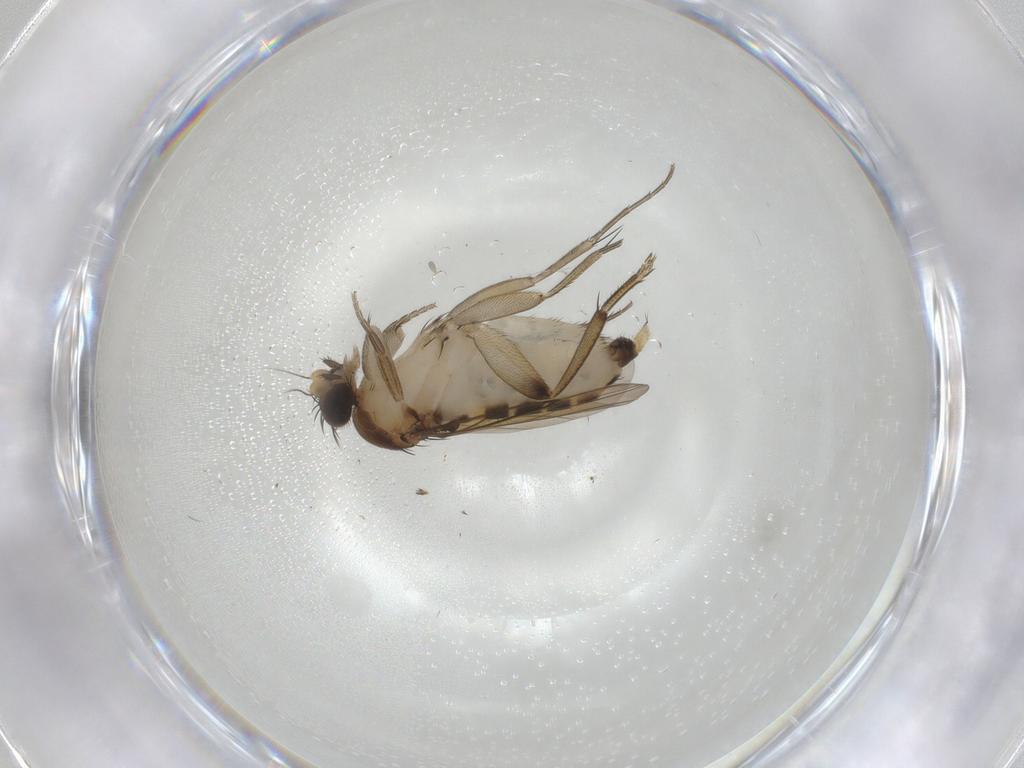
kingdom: Animalia
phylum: Arthropoda
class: Insecta
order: Diptera
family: Phoridae
